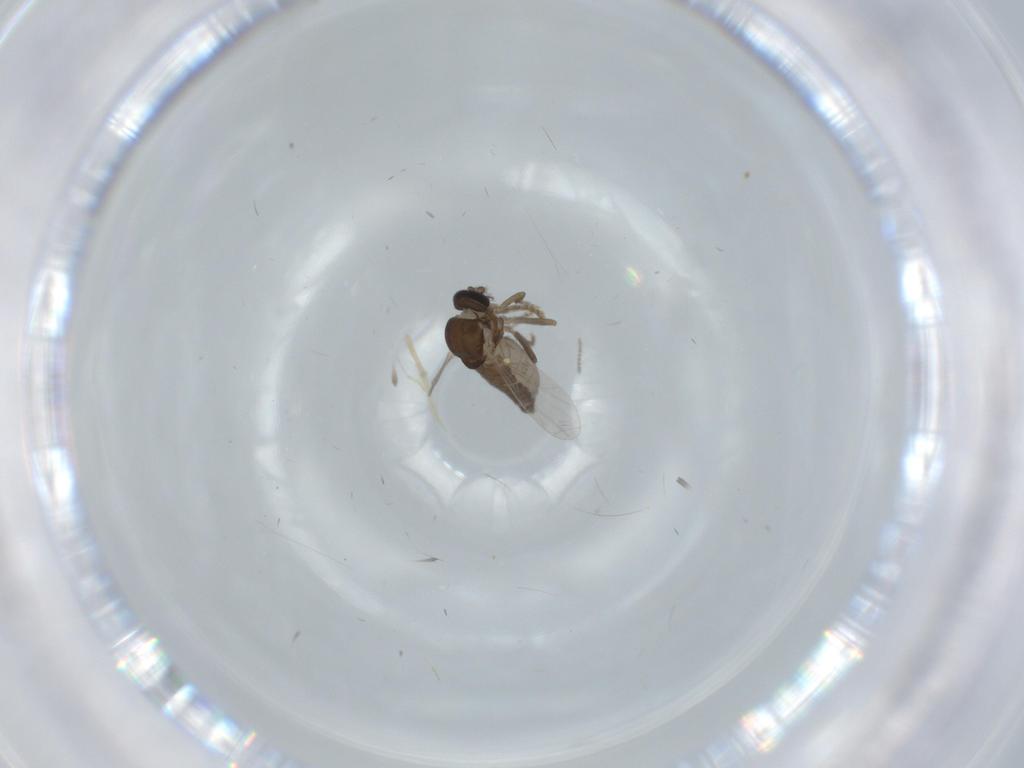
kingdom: Animalia
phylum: Arthropoda
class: Insecta
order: Diptera
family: Ceratopogonidae
